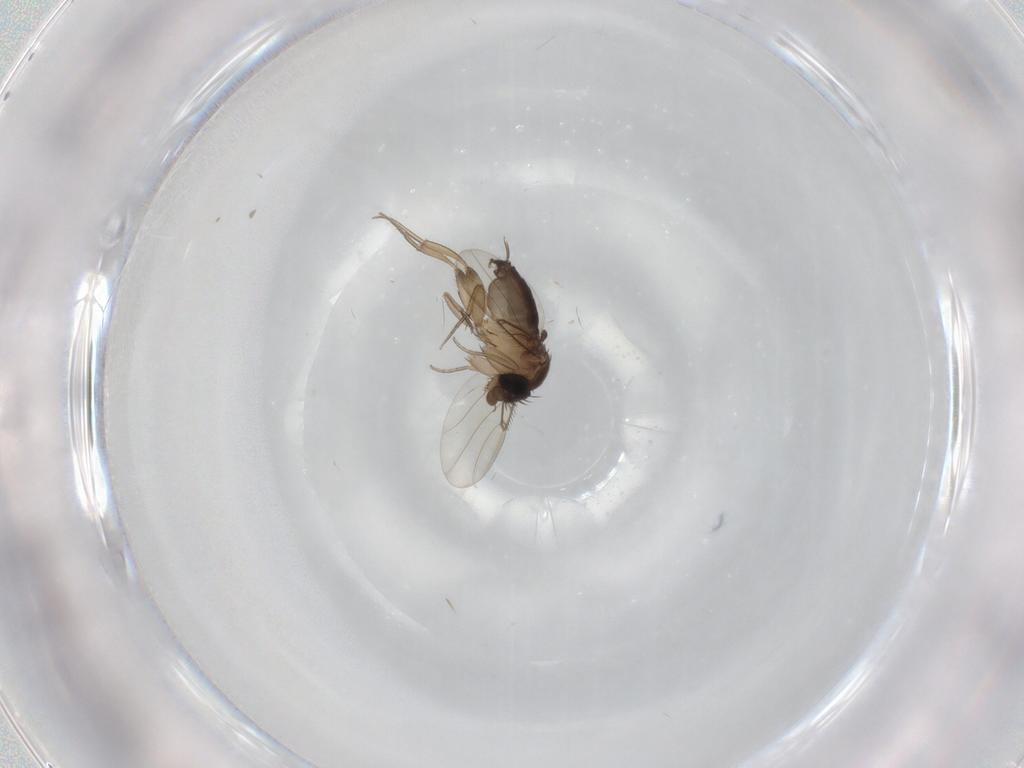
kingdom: Animalia
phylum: Arthropoda
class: Insecta
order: Diptera
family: Phoridae
